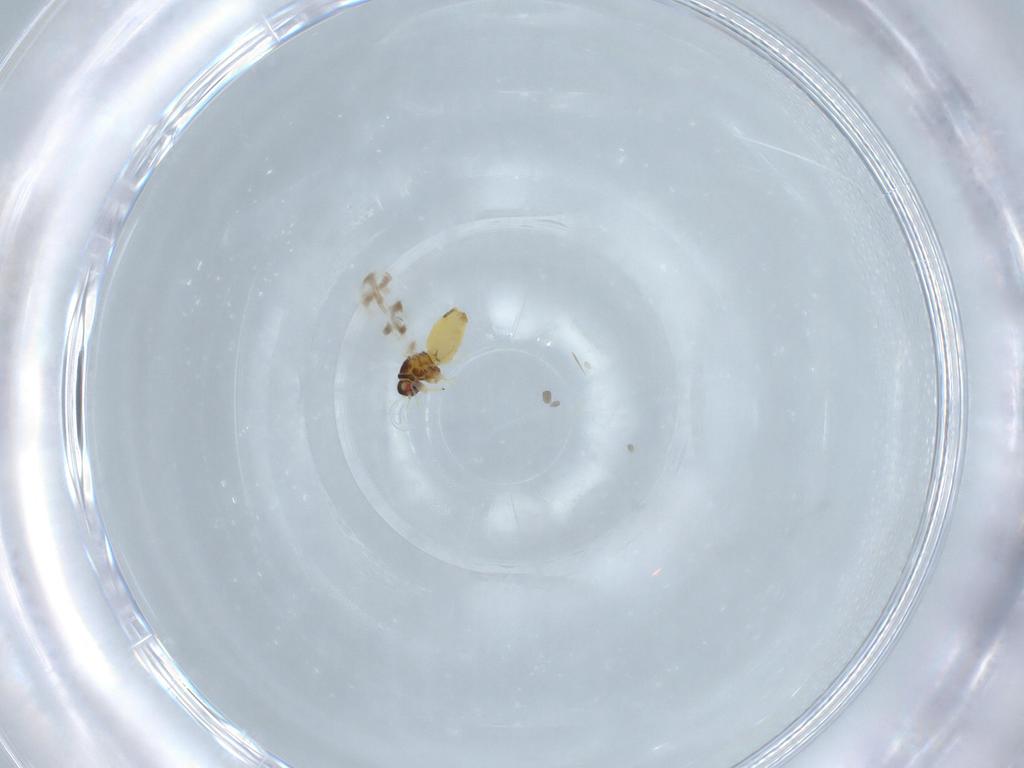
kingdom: Animalia
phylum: Arthropoda
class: Insecta
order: Hemiptera
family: Aleyrodidae
